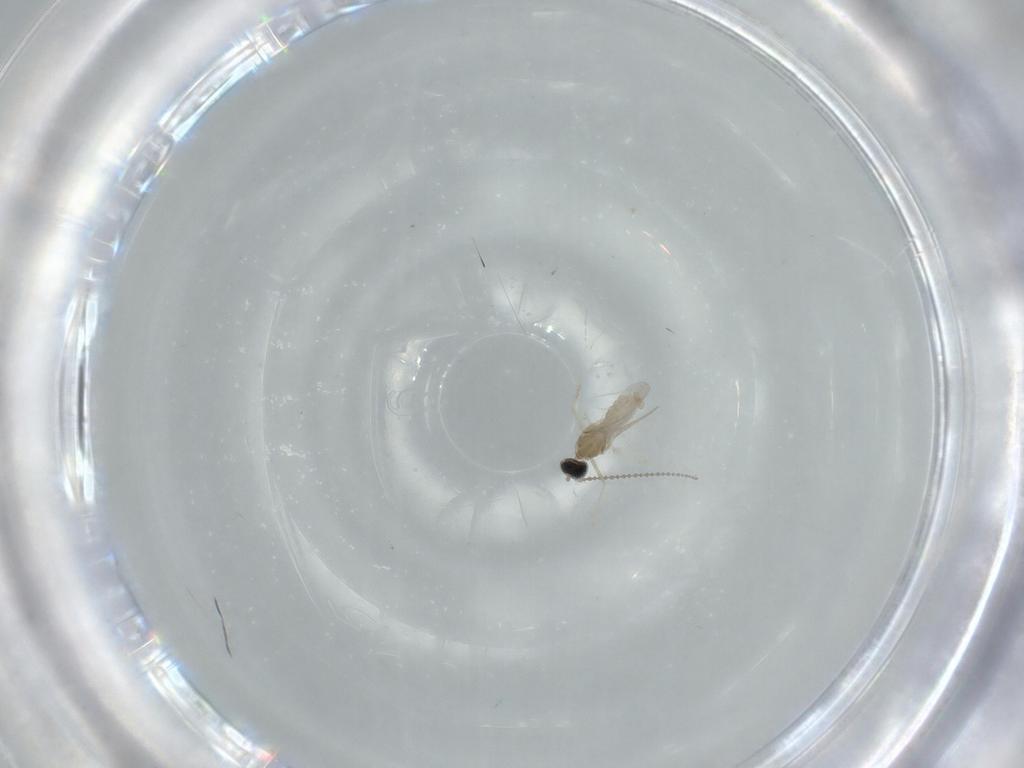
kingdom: Animalia
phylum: Arthropoda
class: Insecta
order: Diptera
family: Cecidomyiidae
